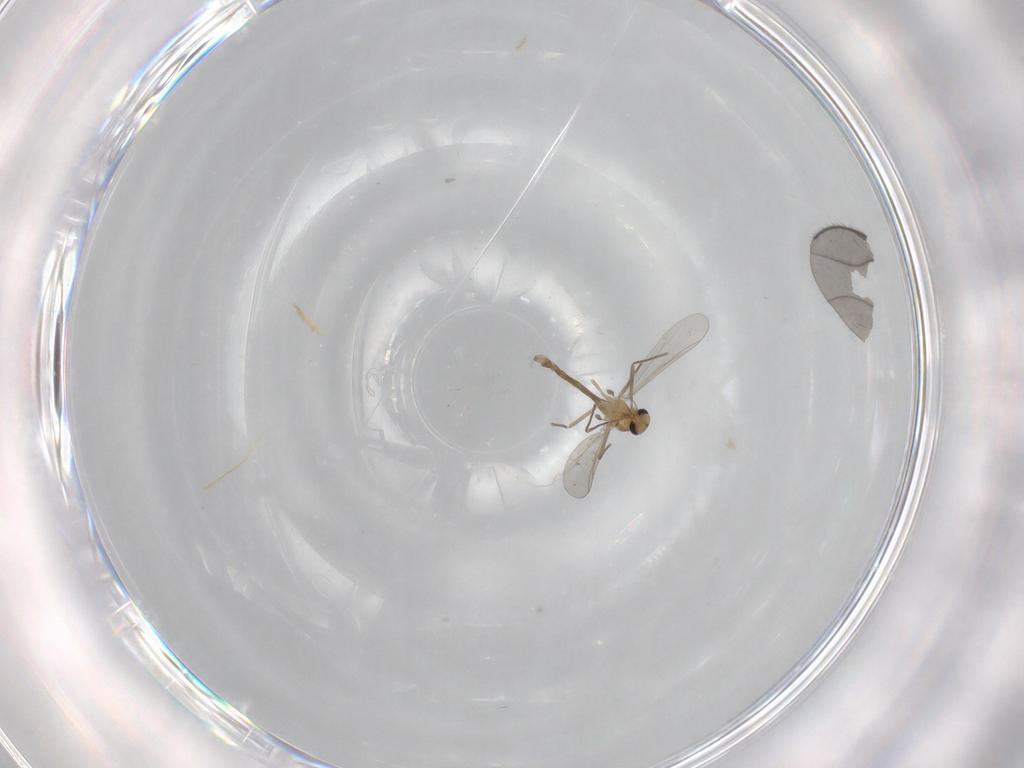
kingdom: Animalia
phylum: Arthropoda
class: Insecta
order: Diptera
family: Chironomidae
